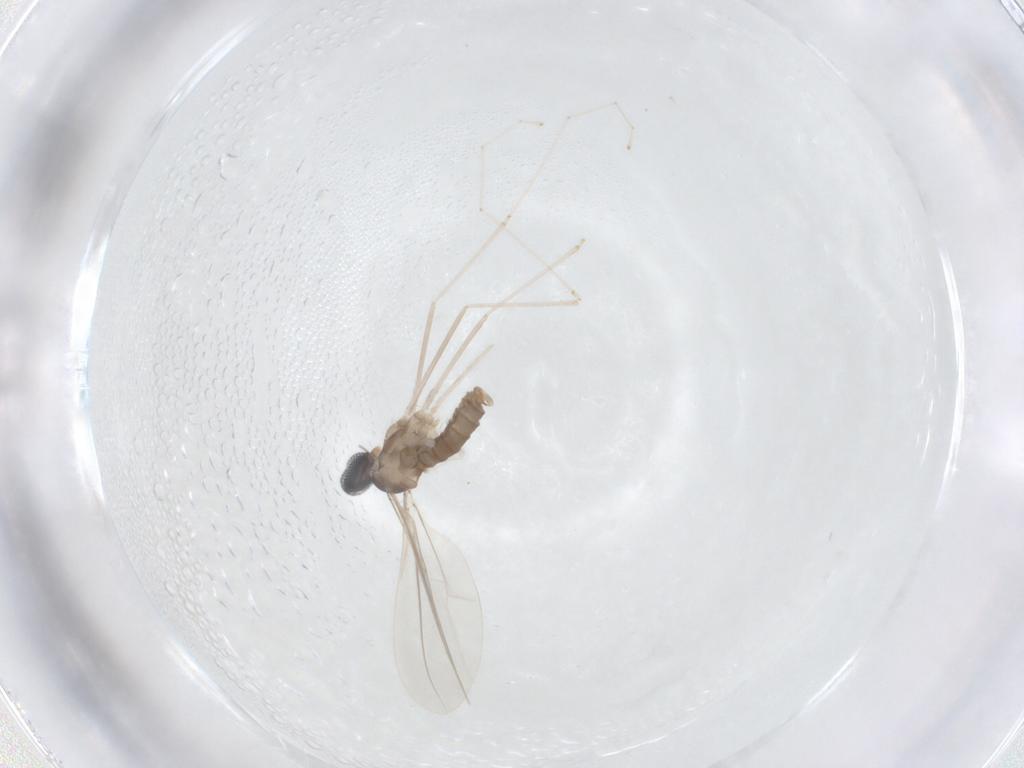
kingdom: Animalia
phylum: Arthropoda
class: Insecta
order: Diptera
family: Cecidomyiidae
